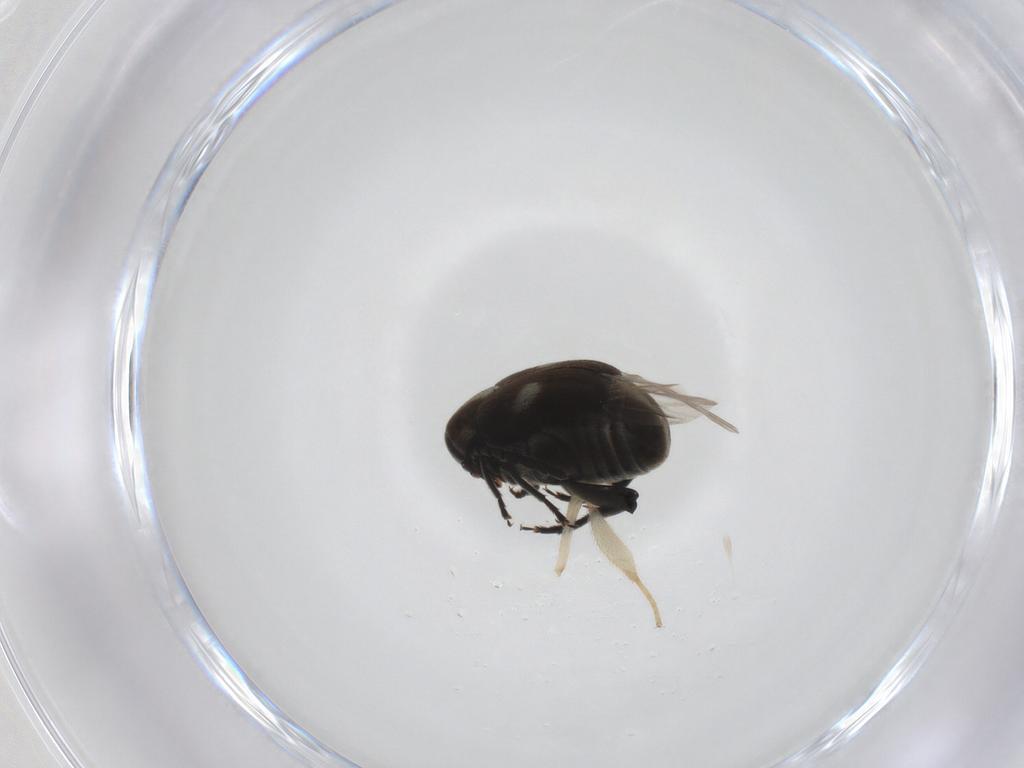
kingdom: Animalia
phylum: Arthropoda
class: Insecta
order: Coleoptera
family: Chrysomelidae
